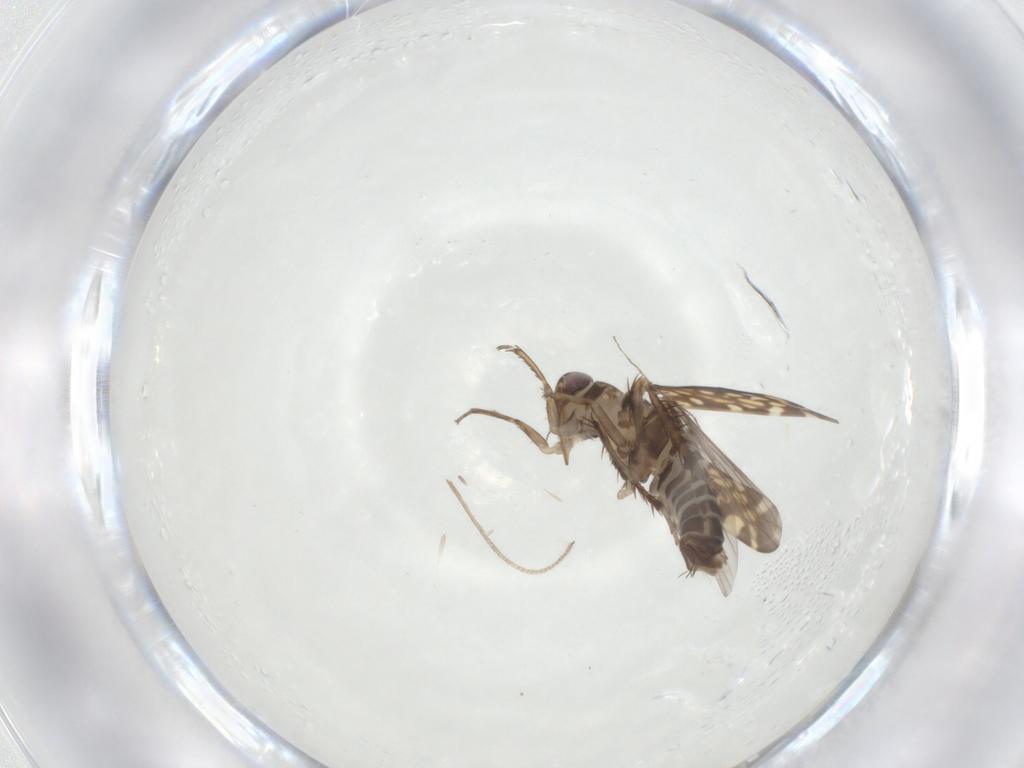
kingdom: Animalia
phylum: Arthropoda
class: Insecta
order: Hemiptera
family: Cicadellidae
